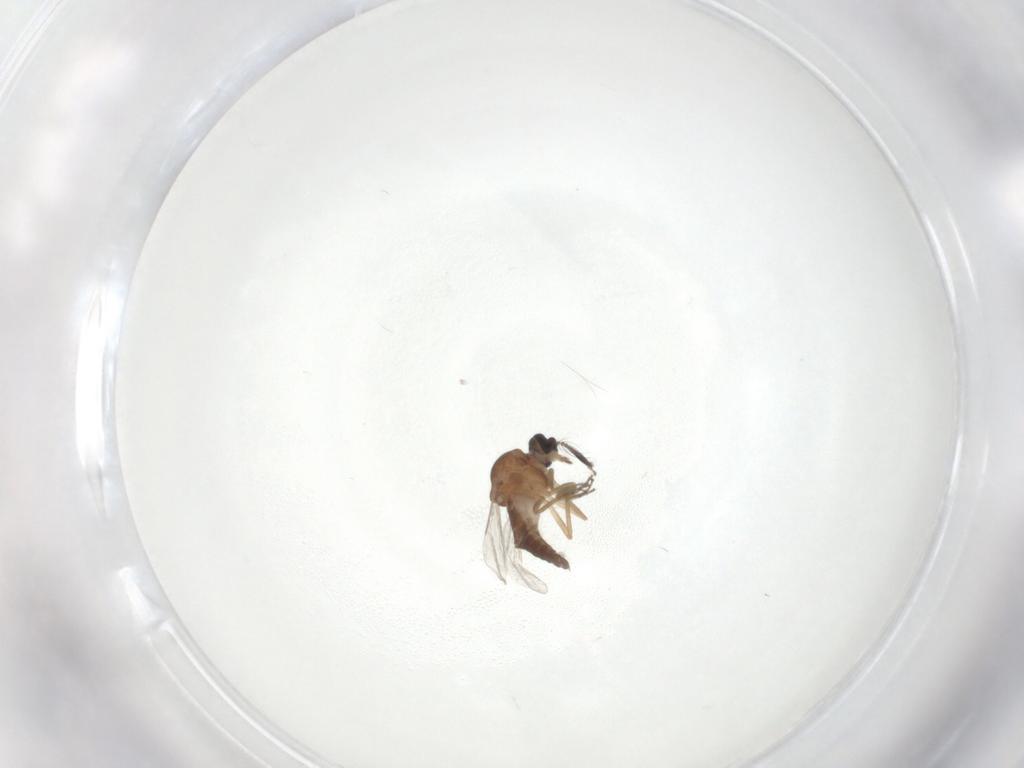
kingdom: Animalia
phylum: Arthropoda
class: Insecta
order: Diptera
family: Ceratopogonidae
